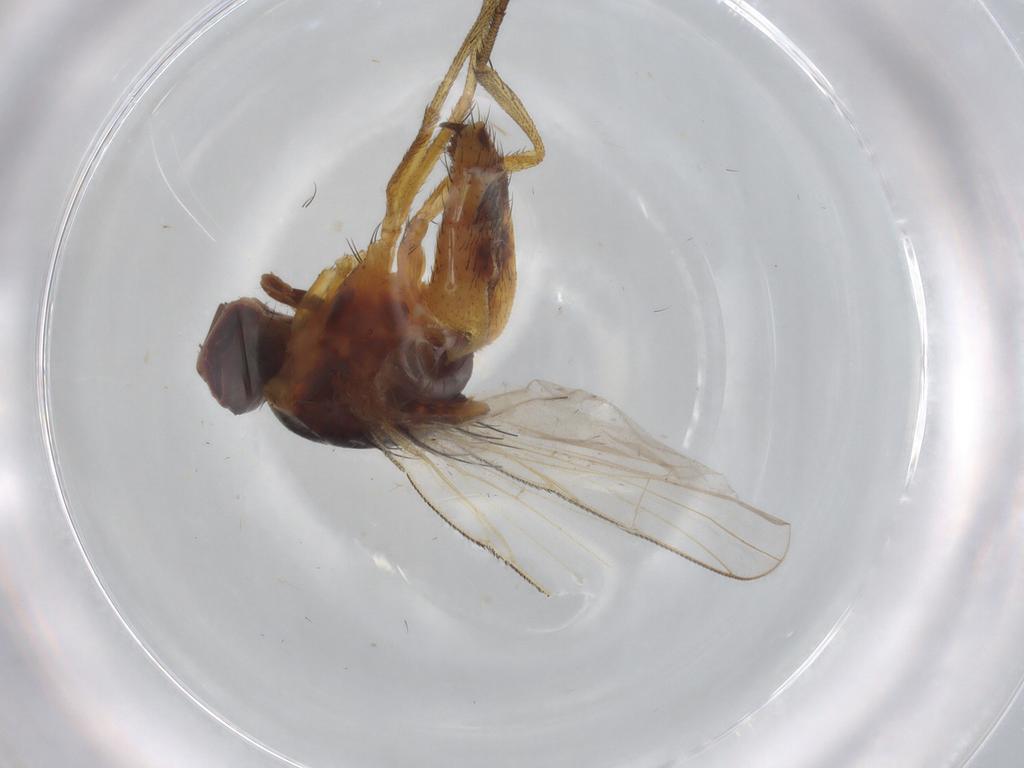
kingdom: Animalia
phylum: Arthropoda
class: Insecta
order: Diptera
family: Muscidae
